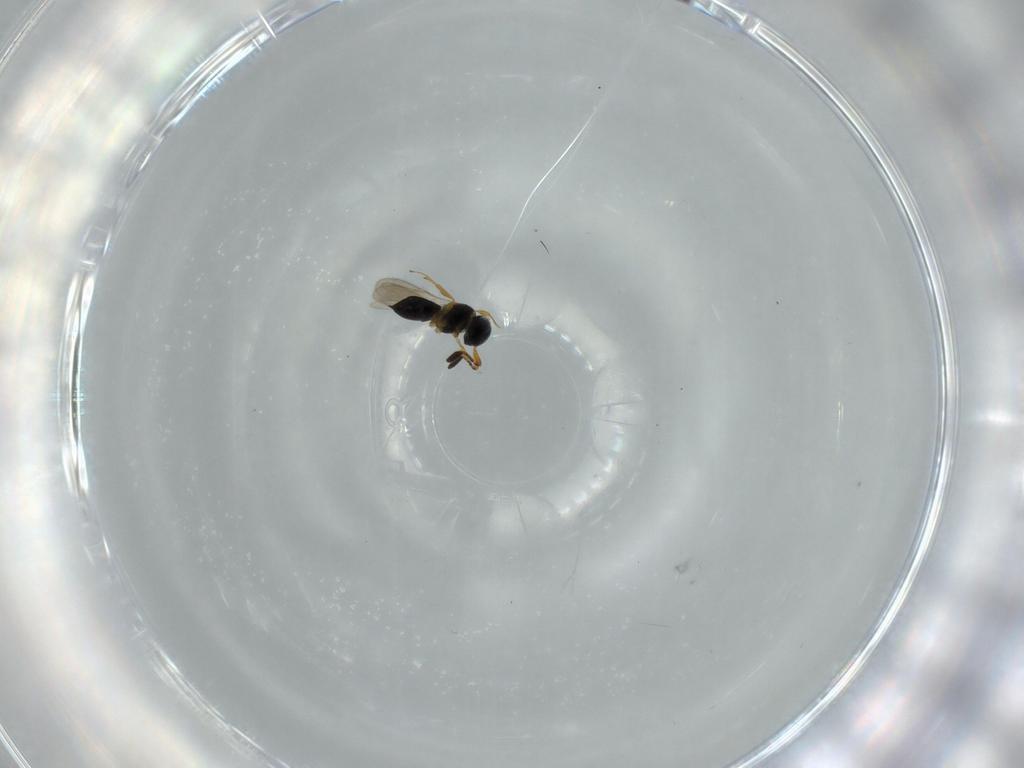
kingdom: Animalia
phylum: Arthropoda
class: Insecta
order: Hymenoptera
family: Scelionidae
